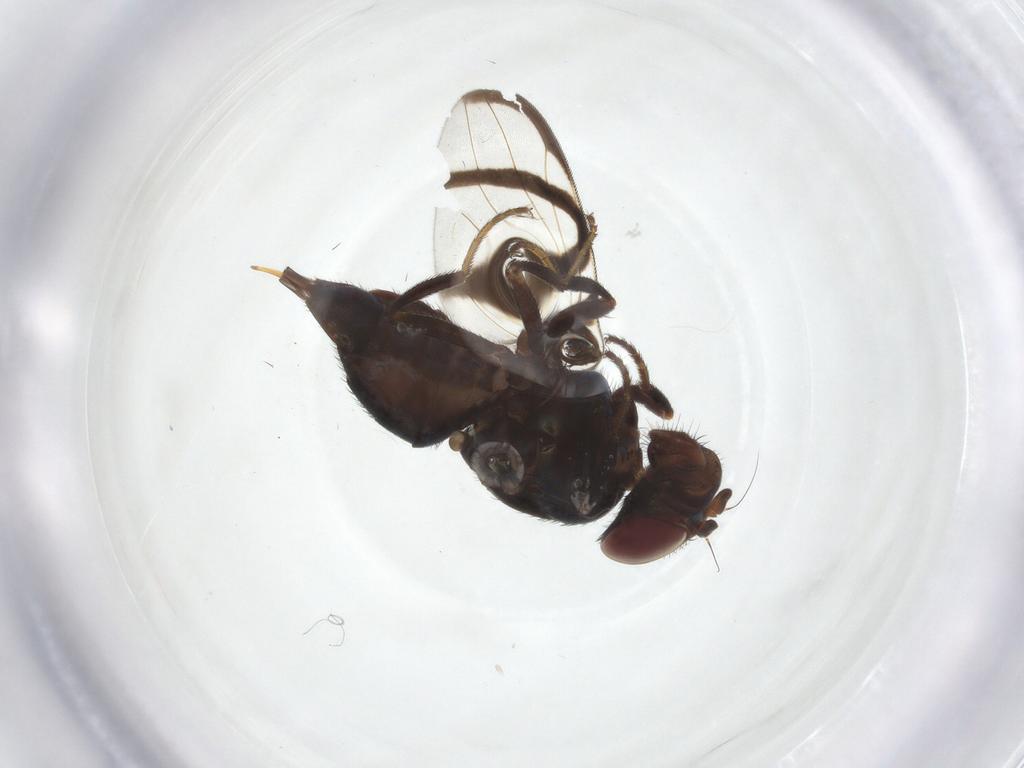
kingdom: Animalia
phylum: Arthropoda
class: Insecta
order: Diptera
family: Ulidiidae
